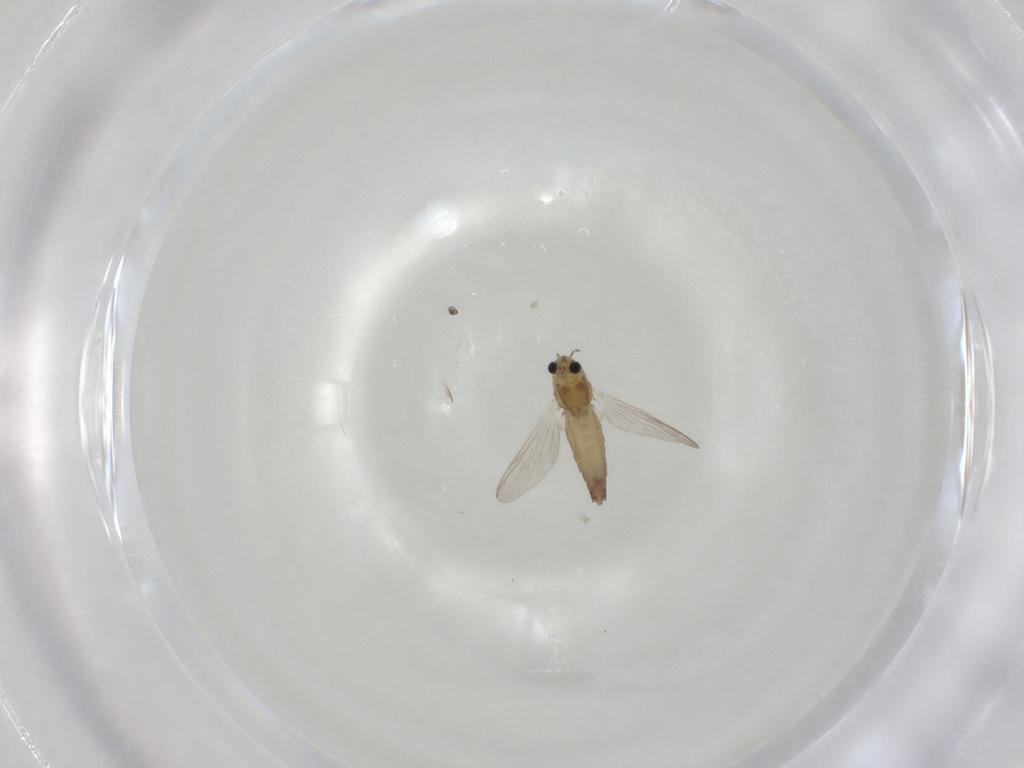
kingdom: Animalia
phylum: Arthropoda
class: Insecta
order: Diptera
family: Chironomidae
